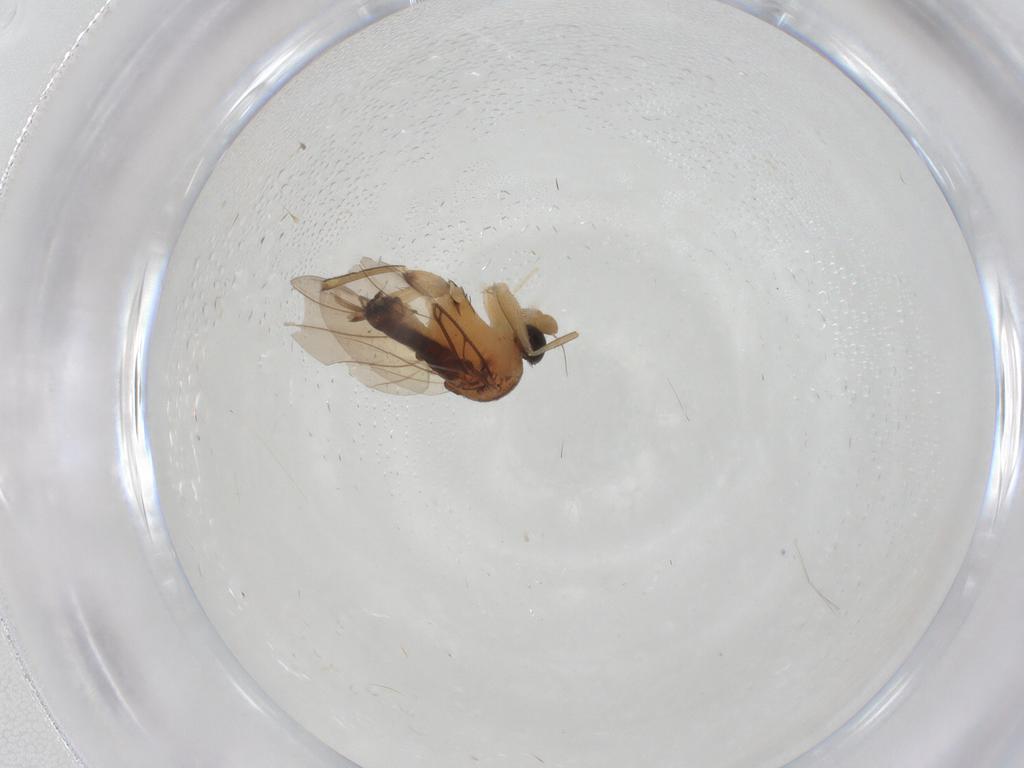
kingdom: Animalia
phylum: Arthropoda
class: Insecta
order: Diptera
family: Phoridae
